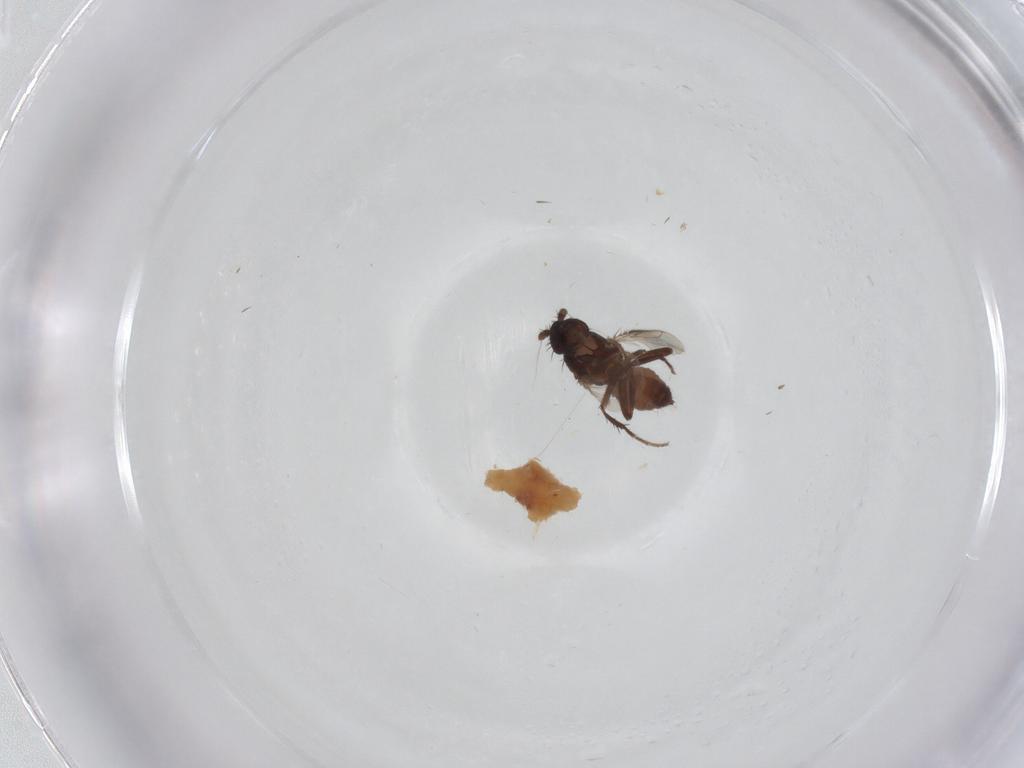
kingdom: Animalia
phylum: Arthropoda
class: Insecta
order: Diptera
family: Sphaeroceridae
